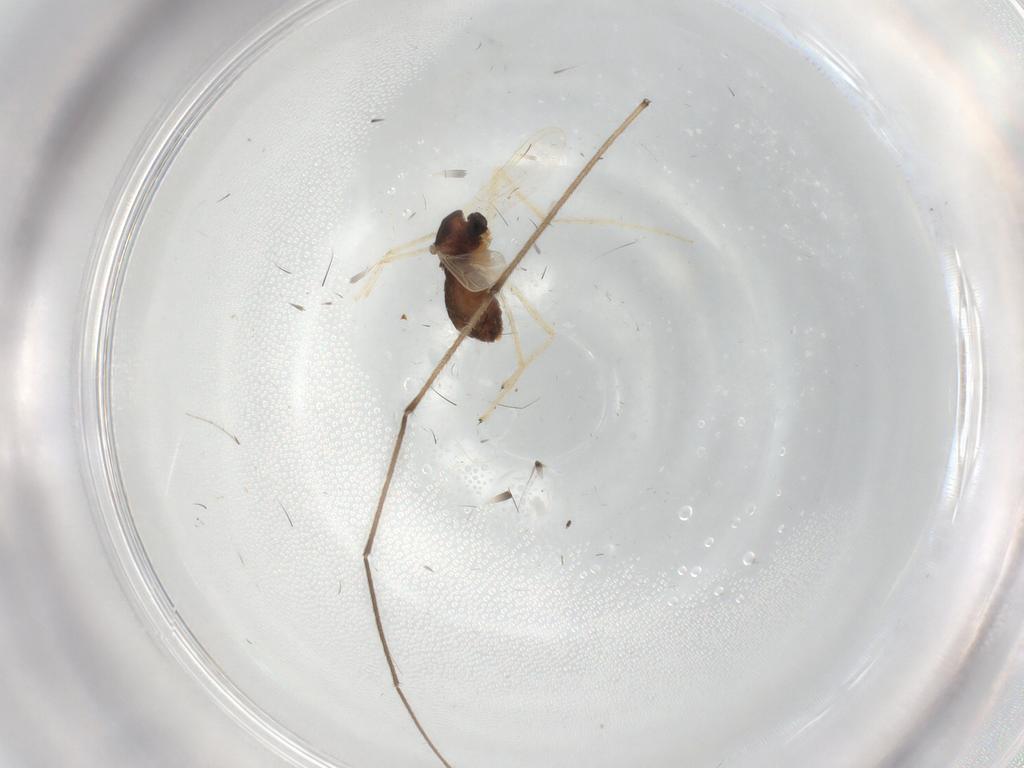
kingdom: Animalia
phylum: Arthropoda
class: Insecta
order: Diptera
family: Chironomidae
